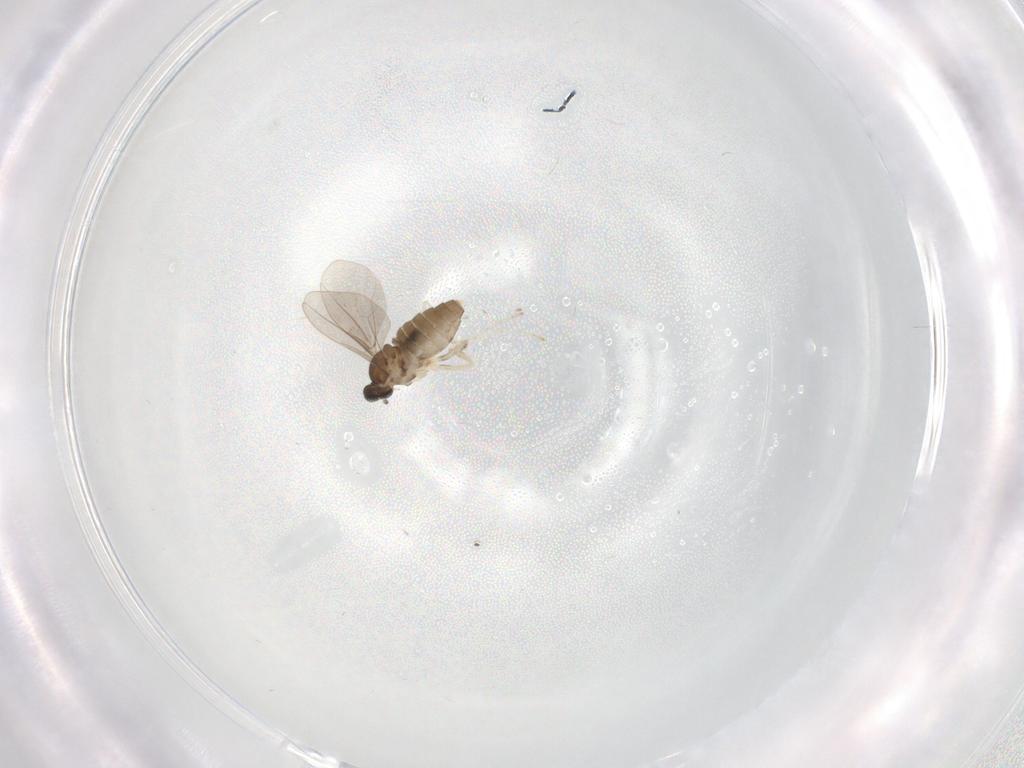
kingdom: Animalia
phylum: Arthropoda
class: Insecta
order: Diptera
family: Cecidomyiidae
